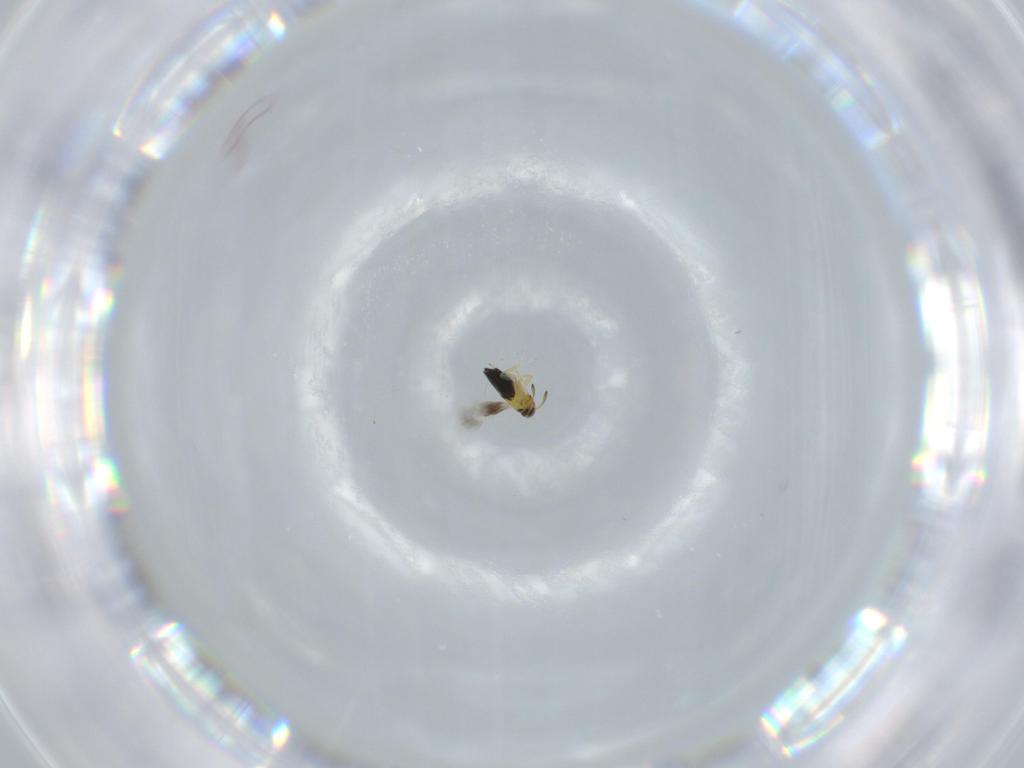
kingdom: Animalia
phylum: Arthropoda
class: Insecta
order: Hymenoptera
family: Signiphoridae
